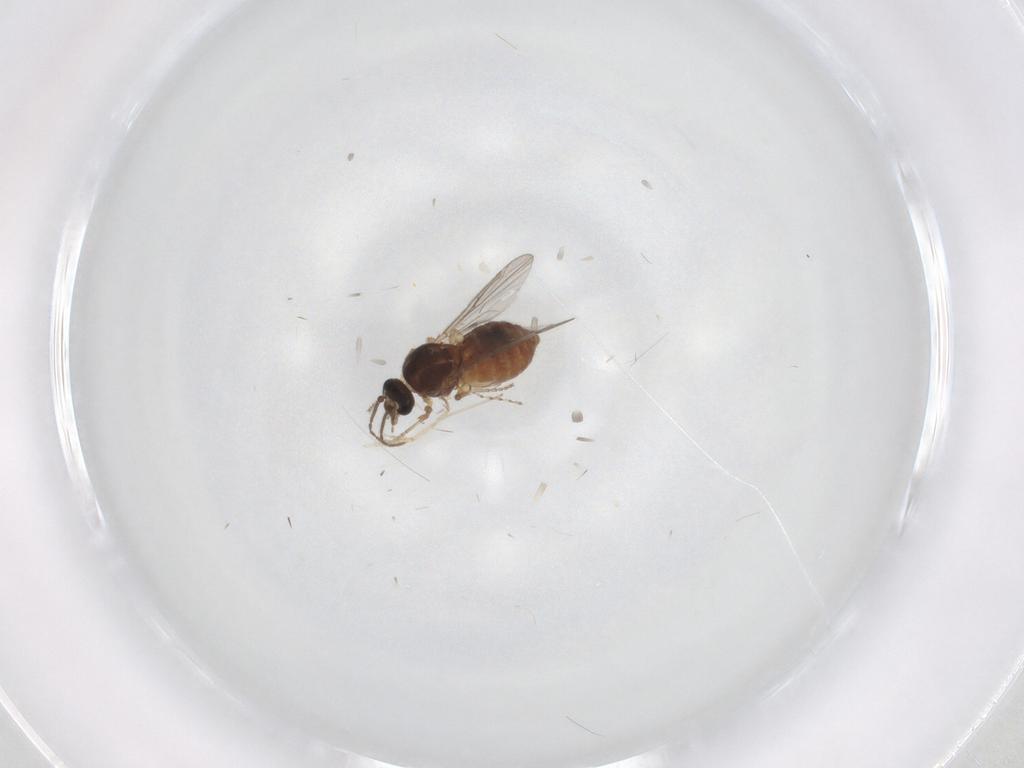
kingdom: Animalia
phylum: Arthropoda
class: Insecta
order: Diptera
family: Ceratopogonidae
